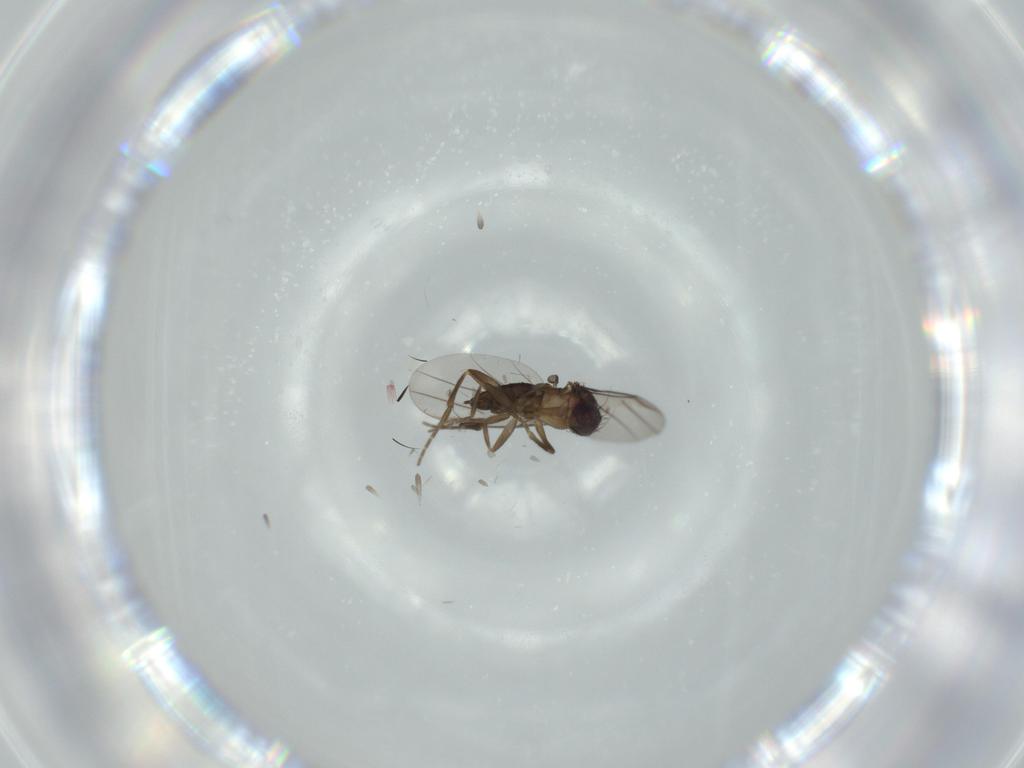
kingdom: Animalia
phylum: Arthropoda
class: Insecta
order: Diptera
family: Phoridae
